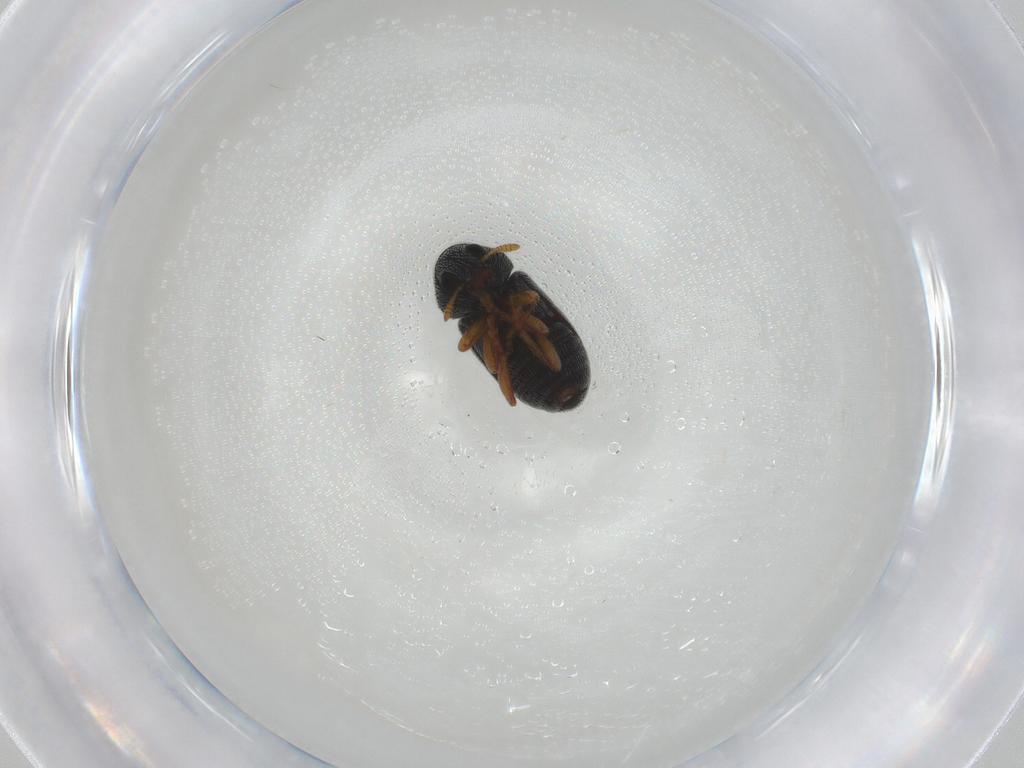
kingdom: Animalia
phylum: Arthropoda
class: Insecta
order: Coleoptera
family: Anthribidae
